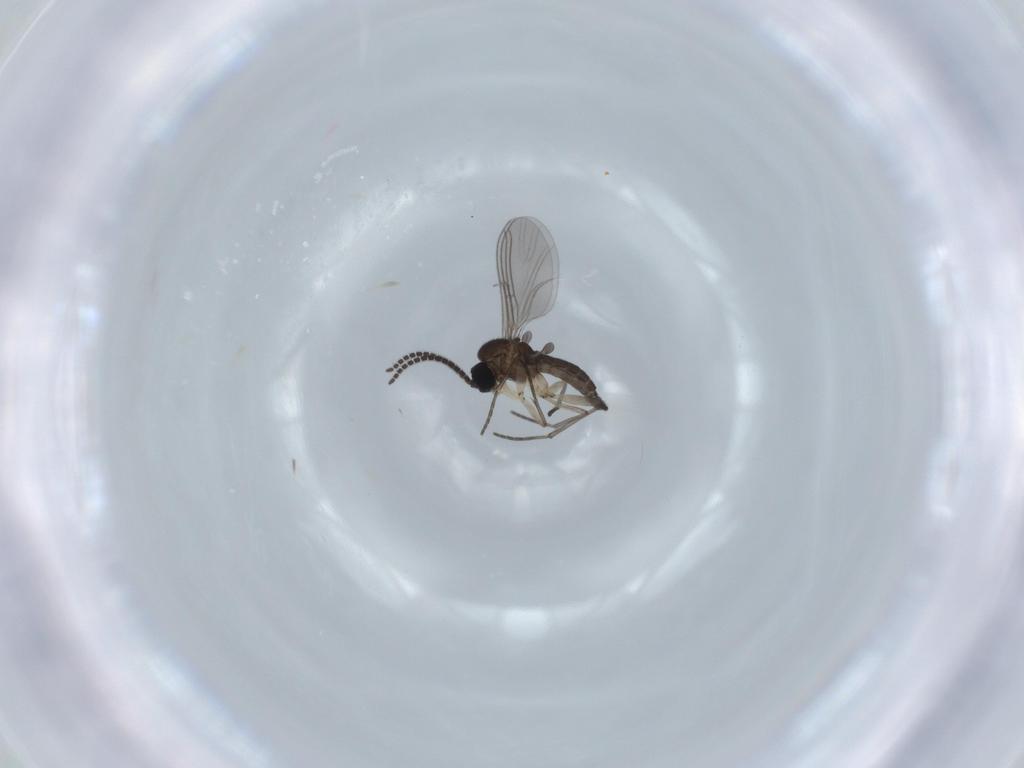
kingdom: Animalia
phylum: Arthropoda
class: Insecta
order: Diptera
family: Sciaridae
